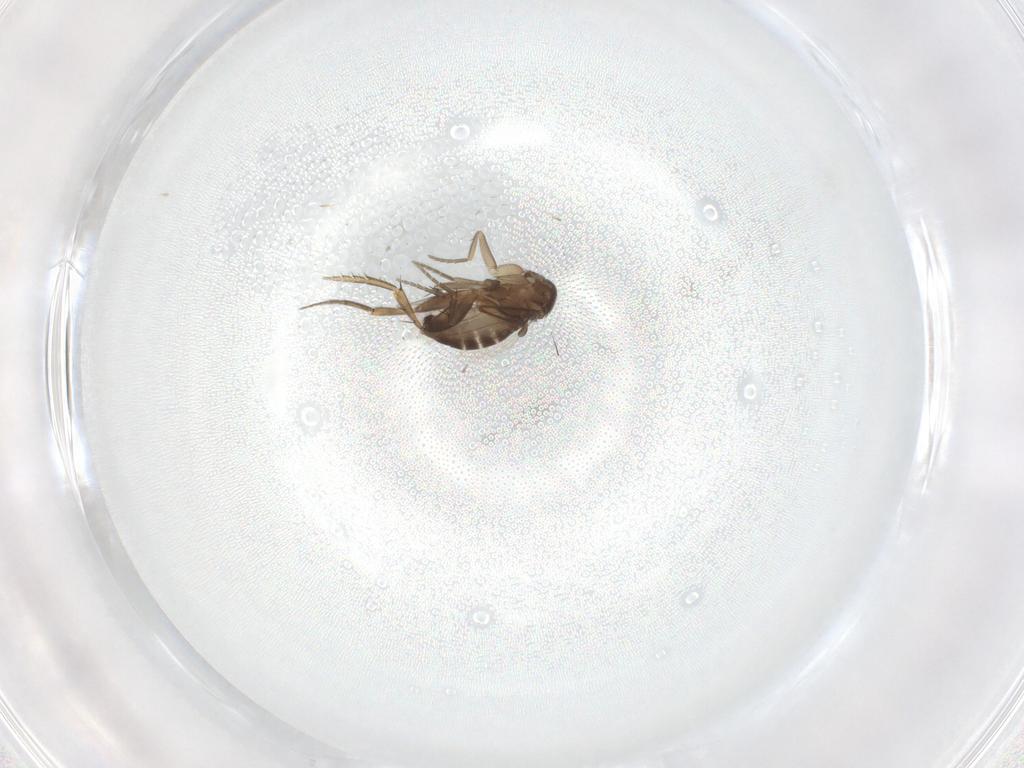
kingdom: Animalia
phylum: Arthropoda
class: Insecta
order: Diptera
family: Phoridae
